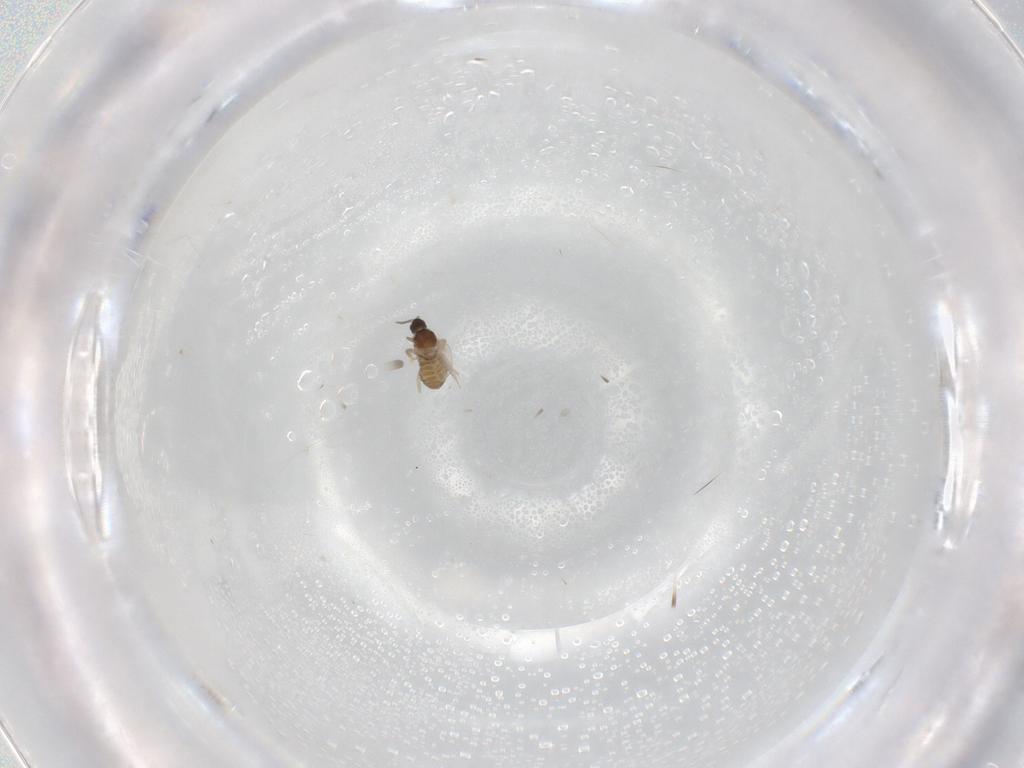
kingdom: Animalia
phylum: Arthropoda
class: Insecta
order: Diptera
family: Cecidomyiidae
